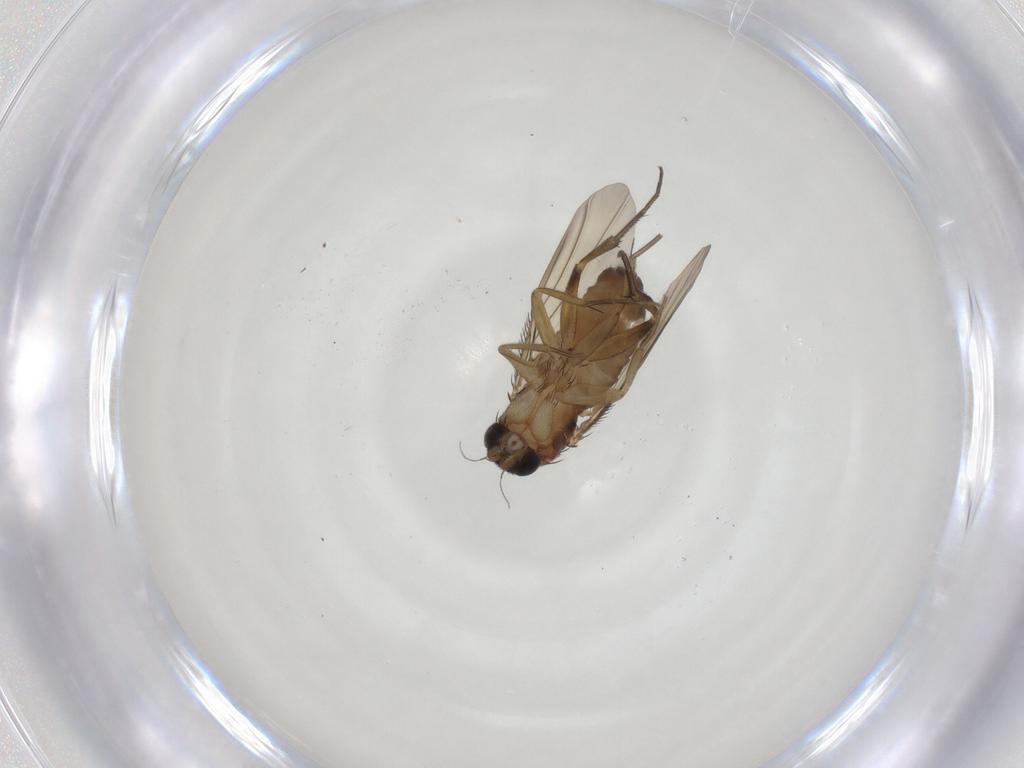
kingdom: Animalia
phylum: Arthropoda
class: Insecta
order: Diptera
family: Phoridae
